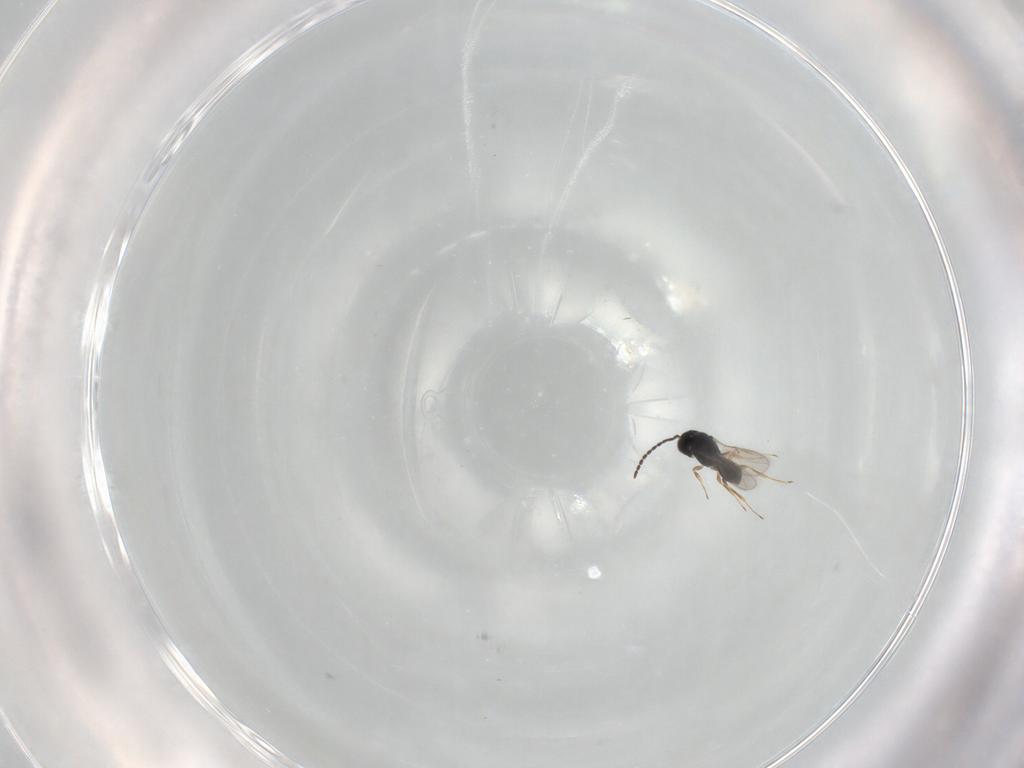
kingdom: Animalia
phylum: Arthropoda
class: Insecta
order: Hymenoptera
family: Scelionidae
